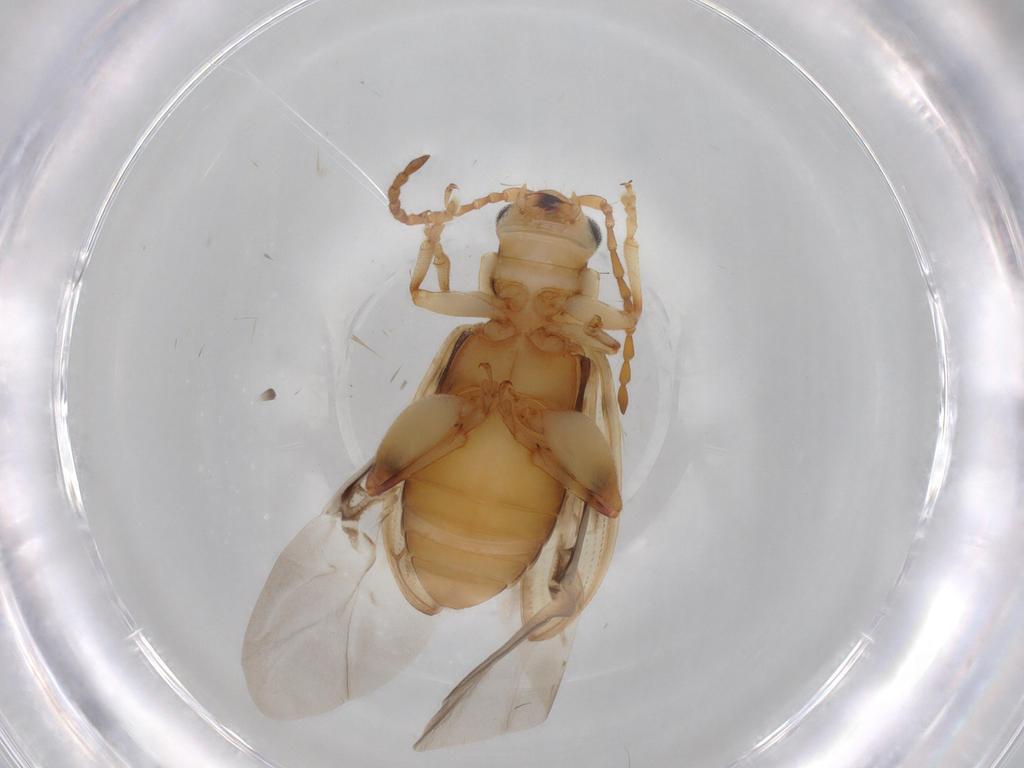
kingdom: Animalia
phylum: Arthropoda
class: Insecta
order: Coleoptera
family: Chrysomelidae
